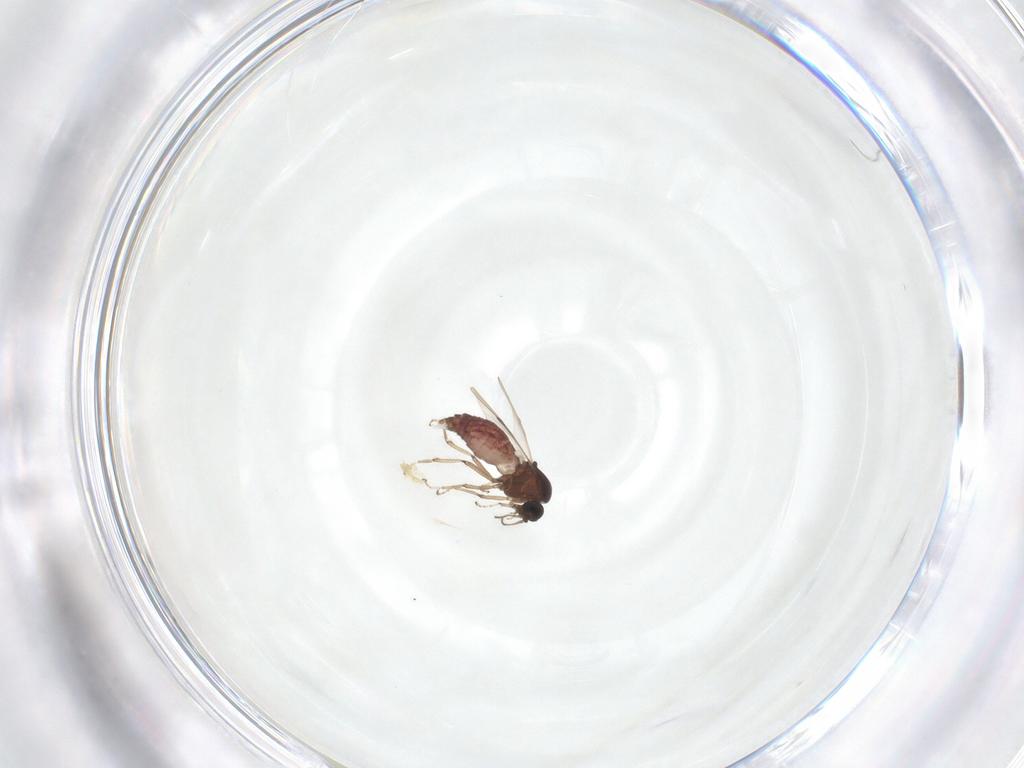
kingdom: Animalia
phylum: Arthropoda
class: Insecta
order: Diptera
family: Ceratopogonidae
